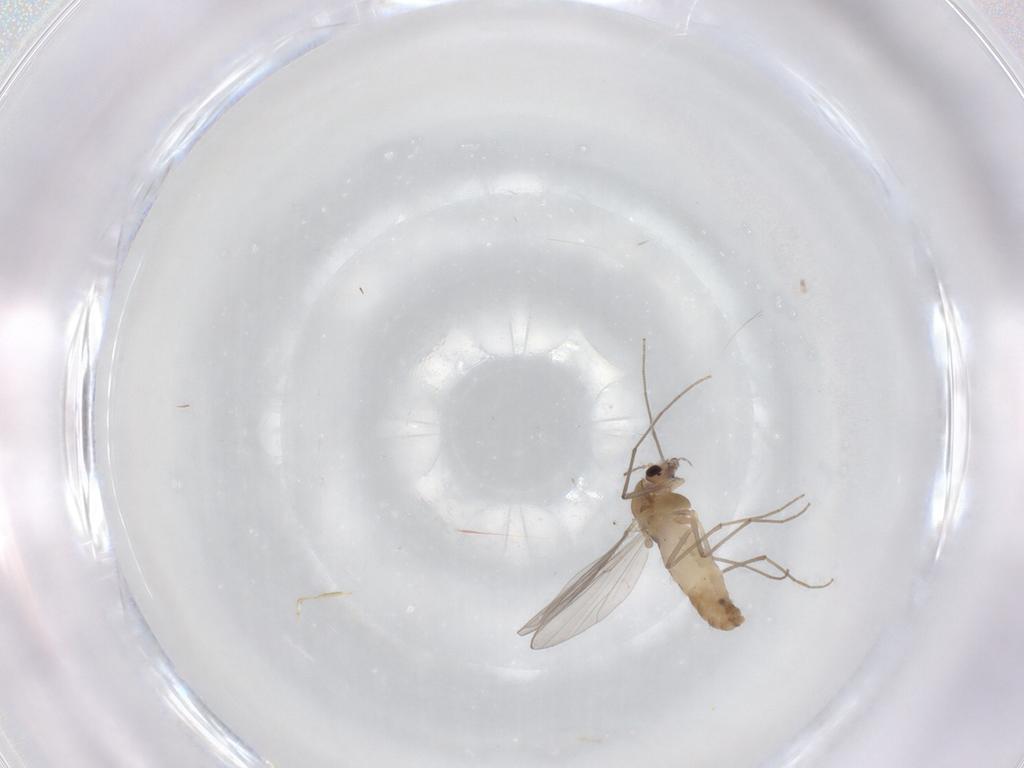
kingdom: Animalia
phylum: Arthropoda
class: Insecta
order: Diptera
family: Chironomidae
